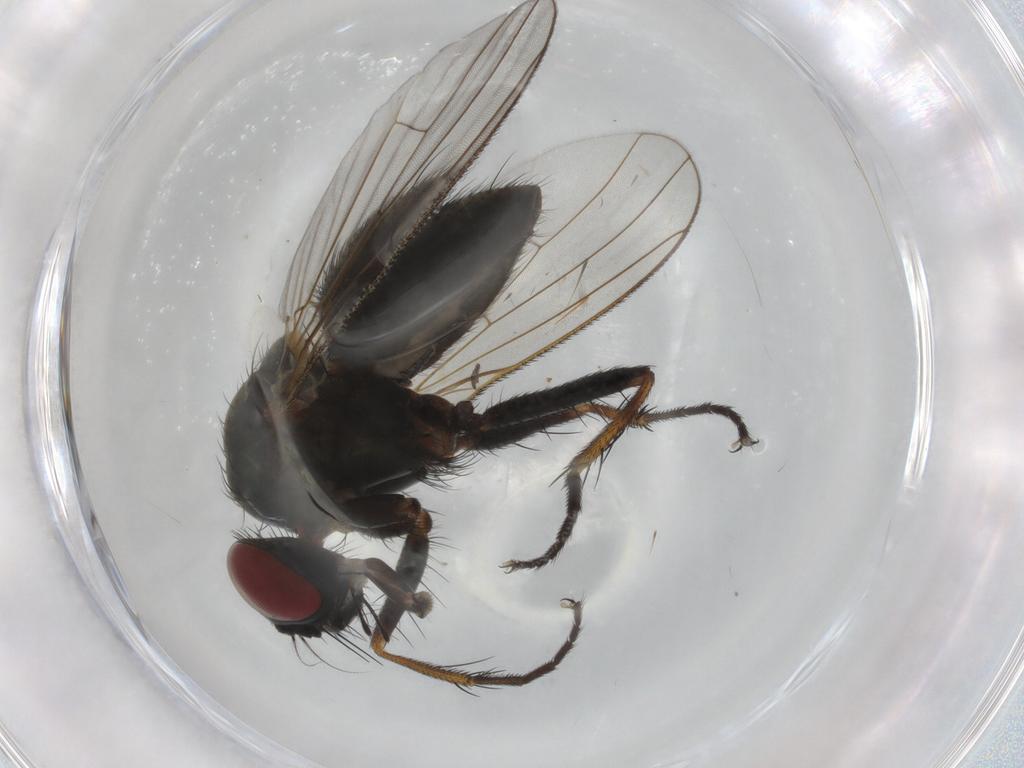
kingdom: Animalia
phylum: Arthropoda
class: Insecta
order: Diptera
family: Muscidae
